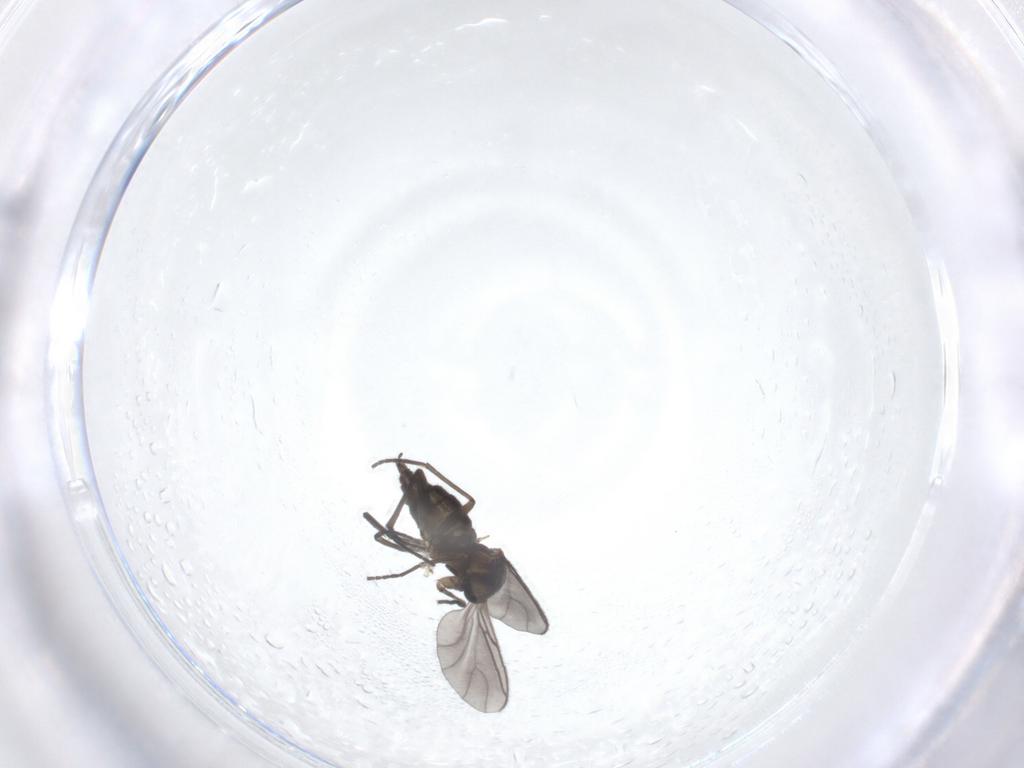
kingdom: Animalia
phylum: Arthropoda
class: Insecta
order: Diptera
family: Sciaridae
